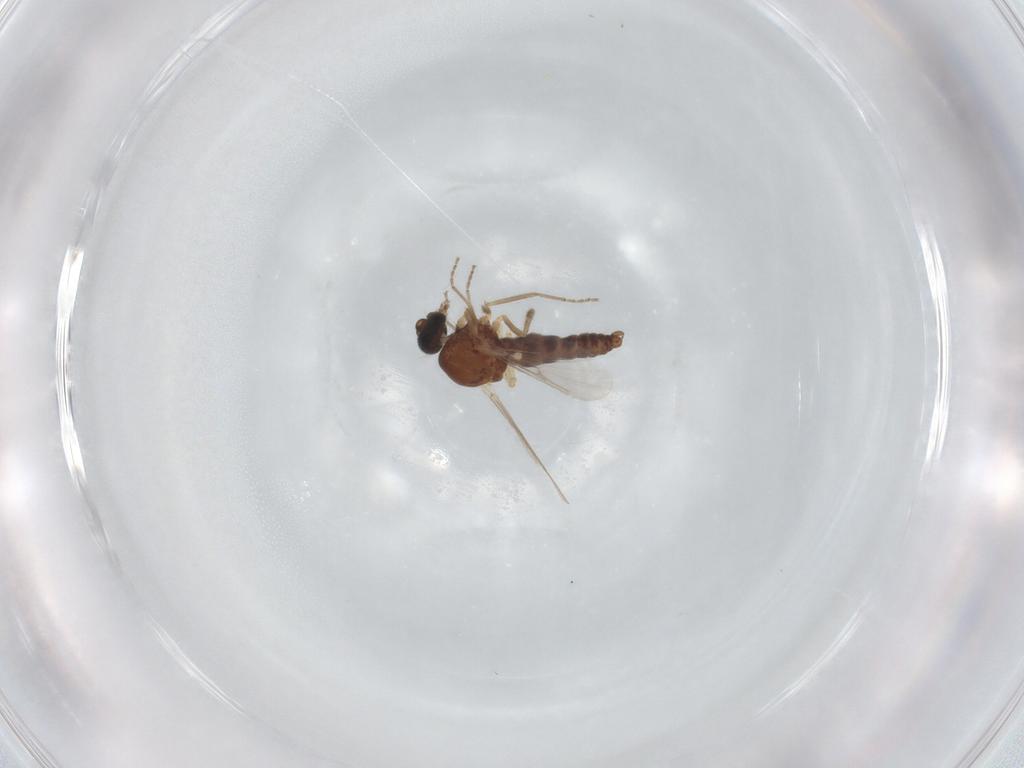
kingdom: Animalia
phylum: Arthropoda
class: Insecta
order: Diptera
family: Ceratopogonidae
